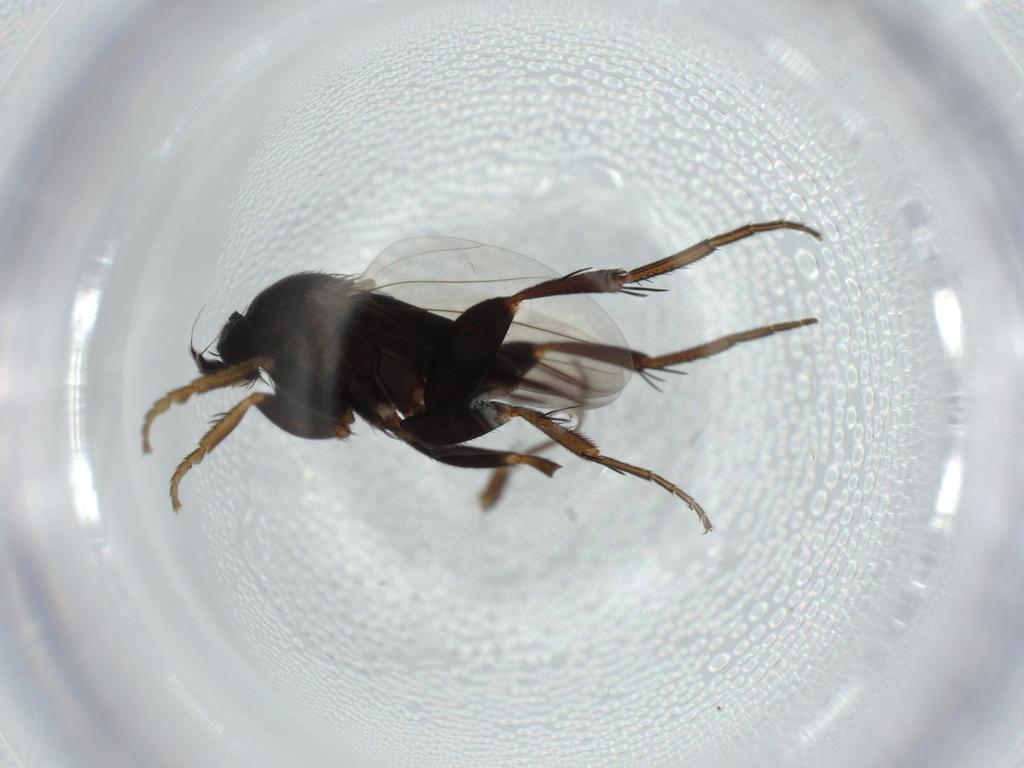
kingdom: Animalia
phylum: Arthropoda
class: Insecta
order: Diptera
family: Phoridae
